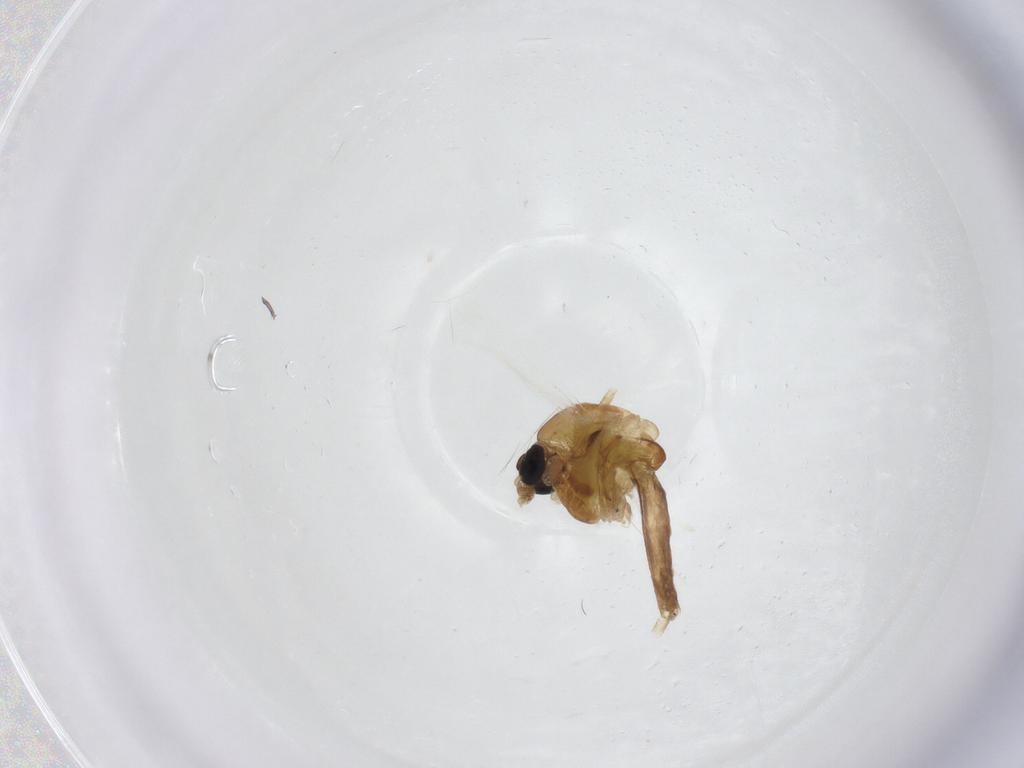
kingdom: Animalia
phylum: Arthropoda
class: Insecta
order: Diptera
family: Chironomidae
